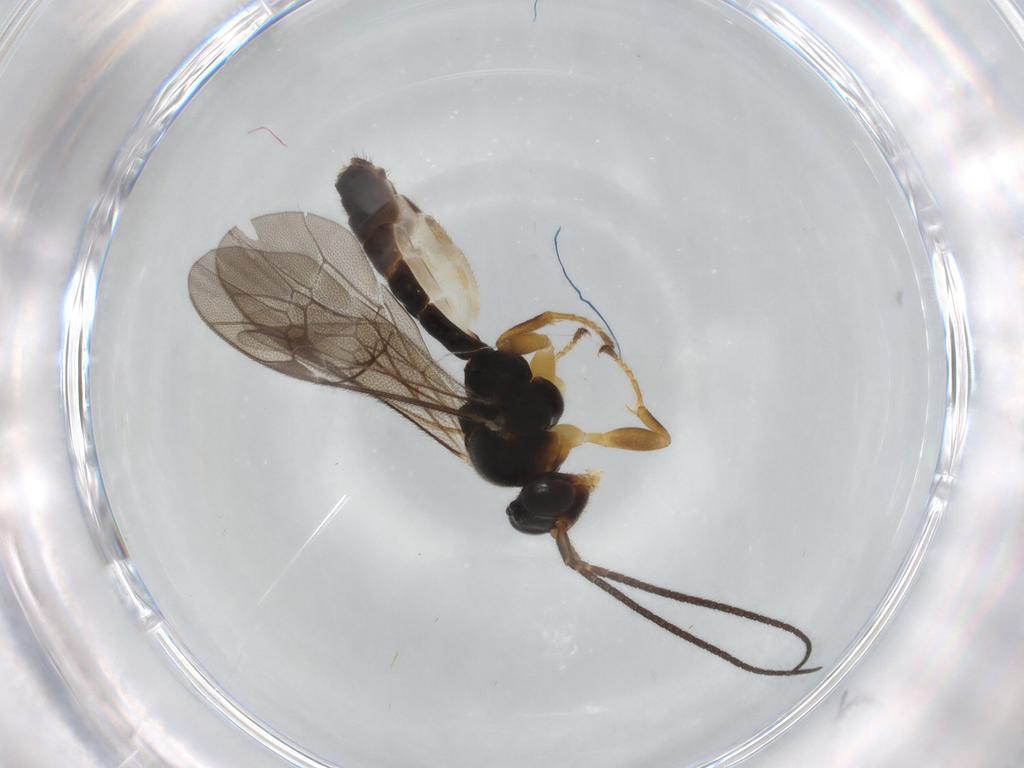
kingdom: Animalia
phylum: Arthropoda
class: Insecta
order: Hymenoptera
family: Ichneumonidae
